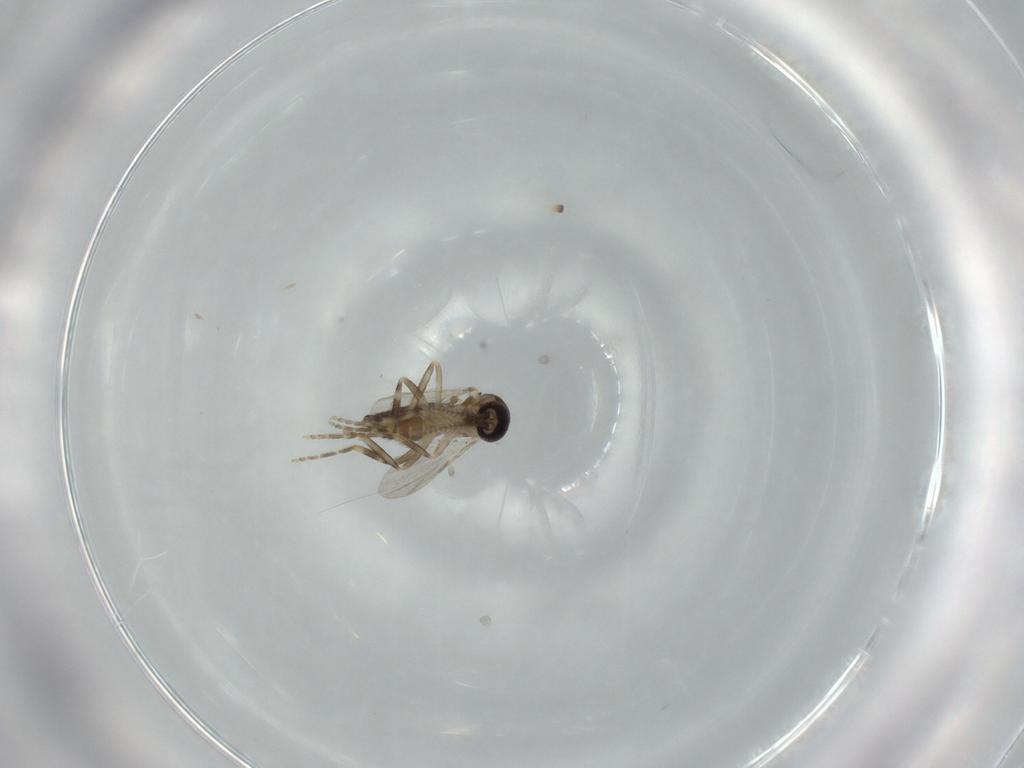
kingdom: Animalia
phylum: Arthropoda
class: Insecta
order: Diptera
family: Ceratopogonidae
